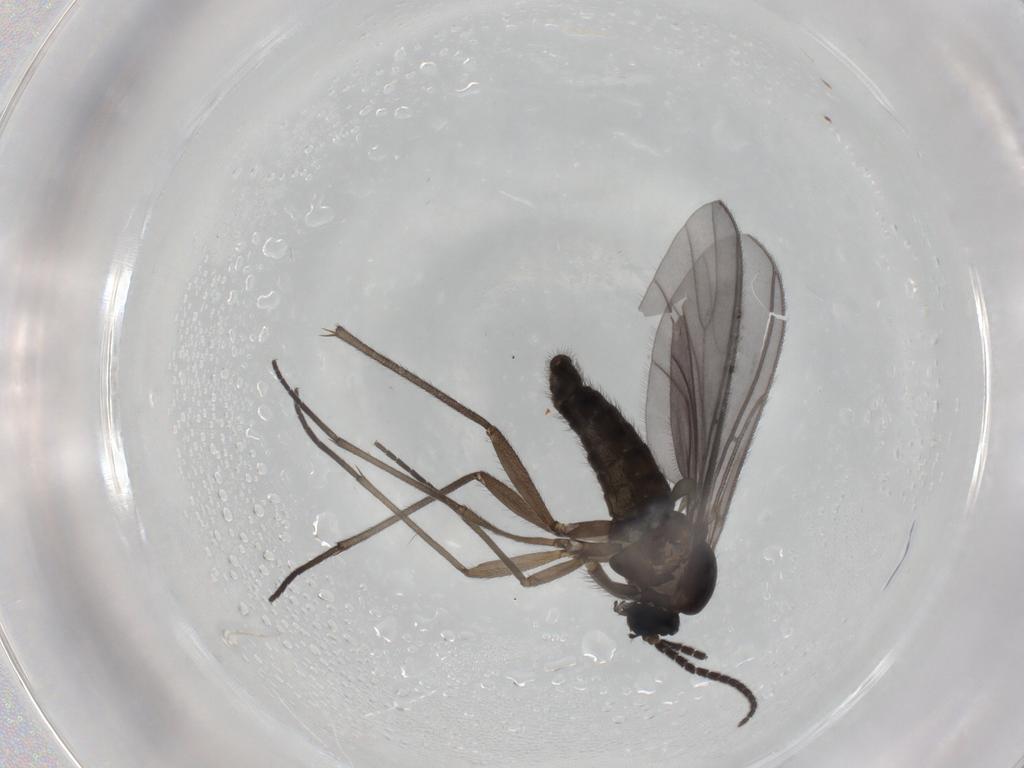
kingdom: Animalia
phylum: Arthropoda
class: Insecta
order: Diptera
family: Sciaridae
